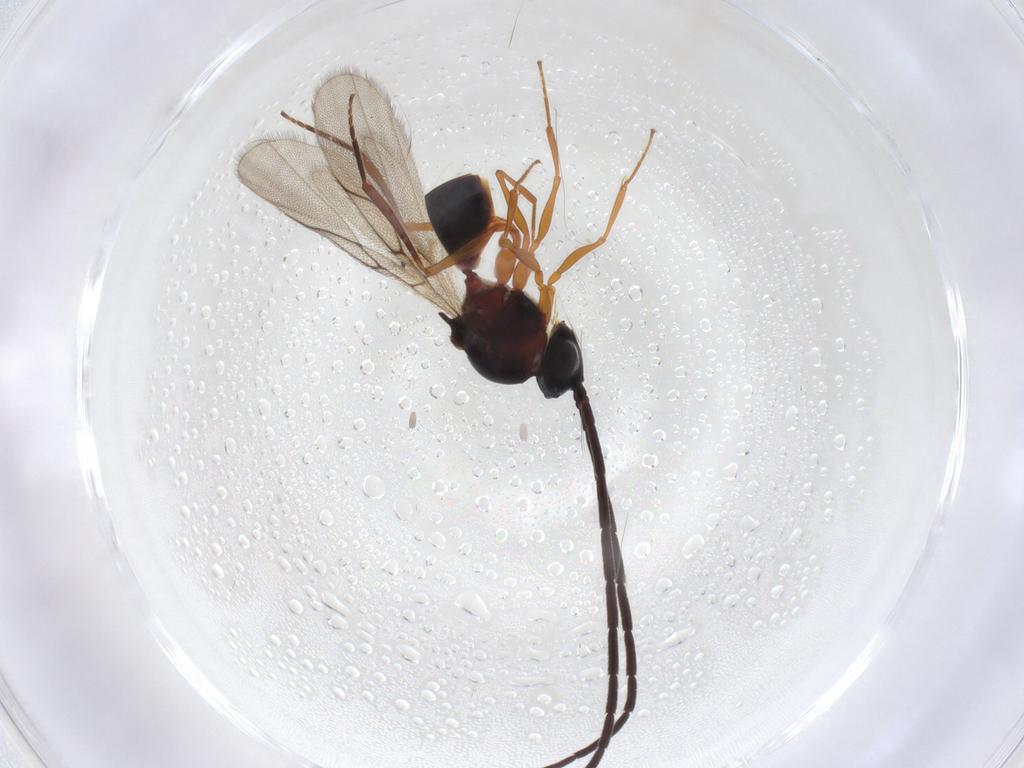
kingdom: Animalia
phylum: Arthropoda
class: Insecta
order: Hymenoptera
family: Figitidae
